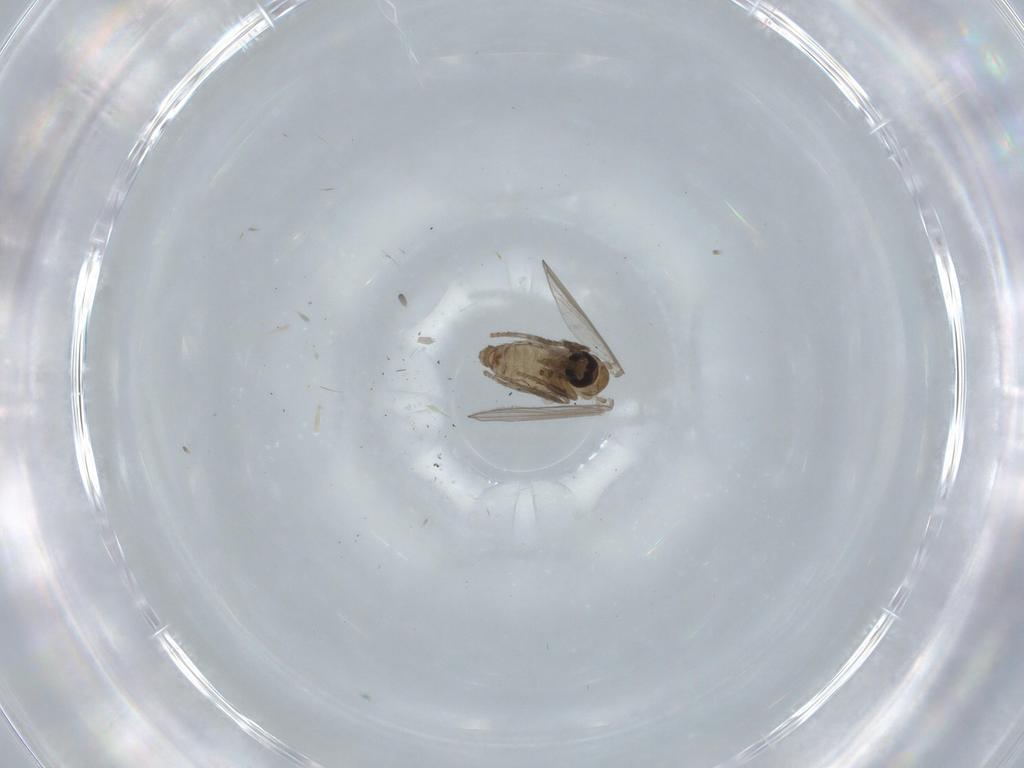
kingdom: Animalia
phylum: Arthropoda
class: Insecta
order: Diptera
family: Psychodidae
